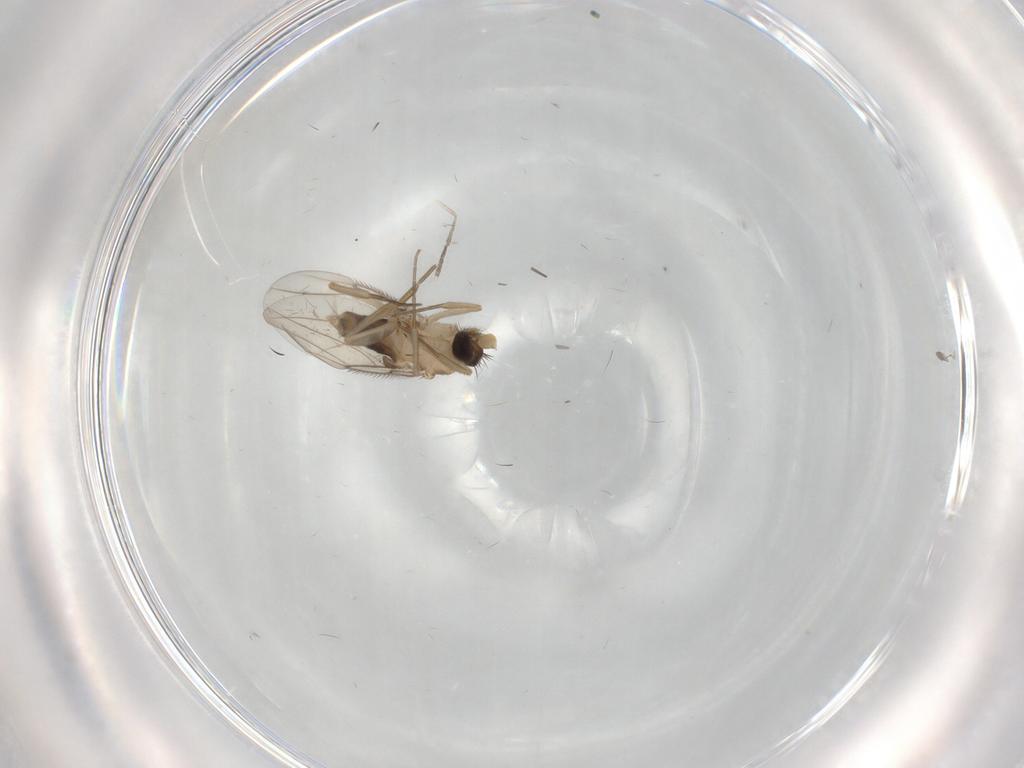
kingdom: Animalia
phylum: Arthropoda
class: Insecta
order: Diptera
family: Psychodidae
